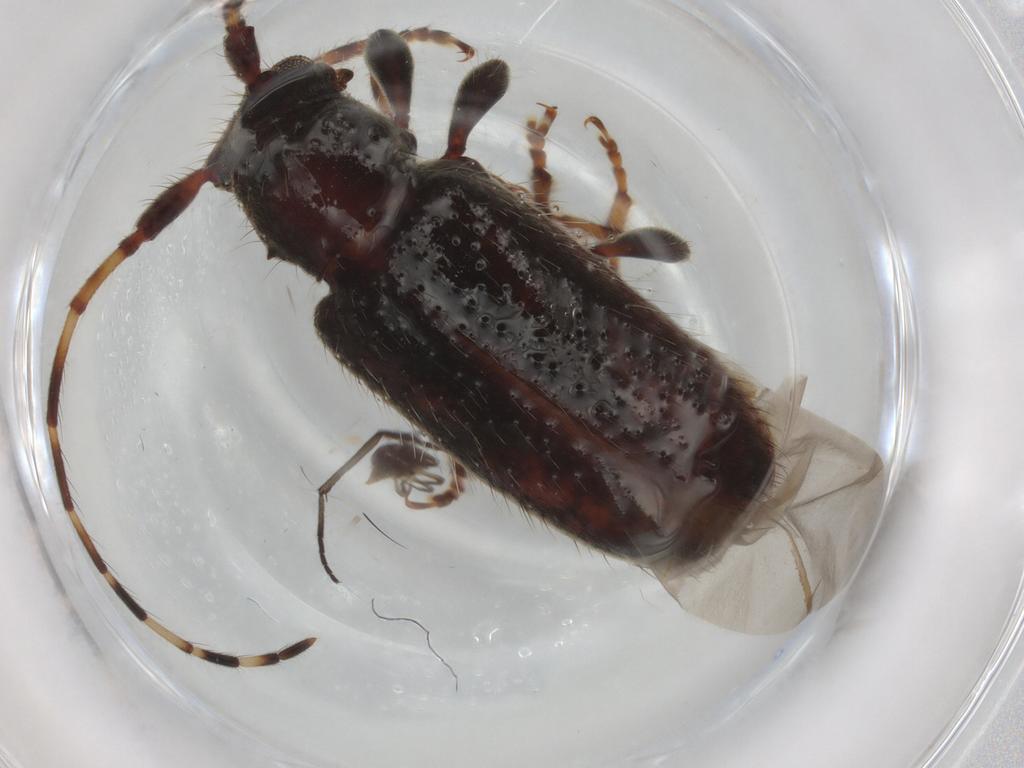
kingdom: Animalia
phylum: Arthropoda
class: Insecta
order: Coleoptera
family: Cerambycidae
